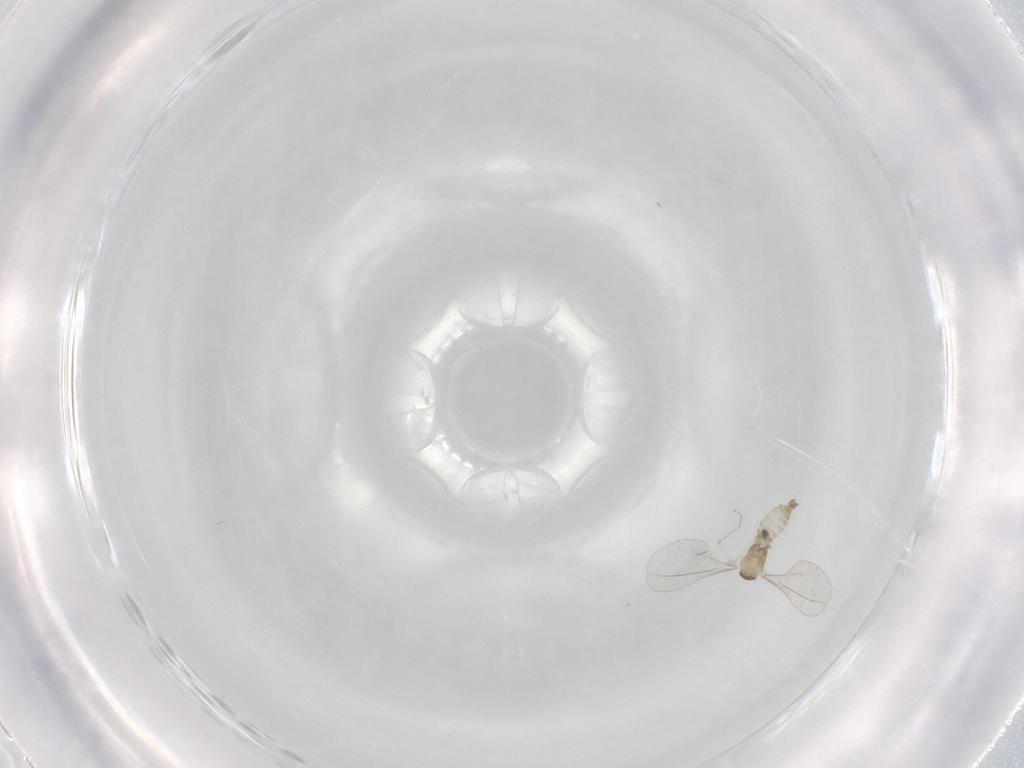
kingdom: Animalia
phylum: Arthropoda
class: Insecta
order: Diptera
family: Cecidomyiidae
